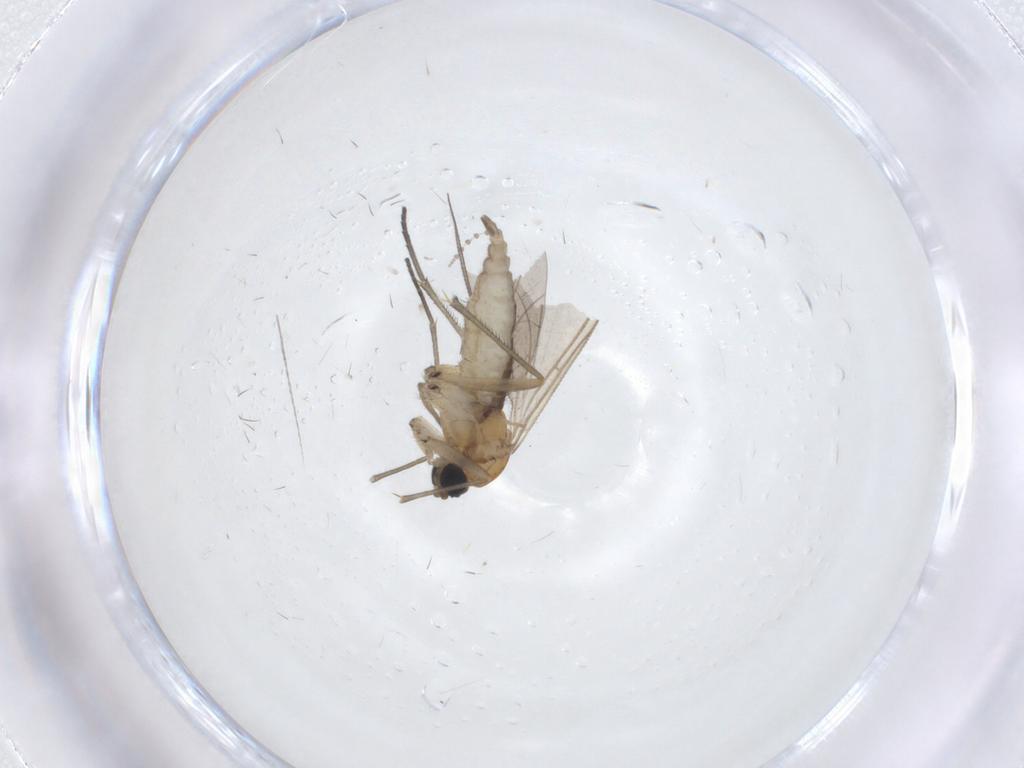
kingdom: Animalia
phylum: Arthropoda
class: Insecta
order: Diptera
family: Sciaridae
